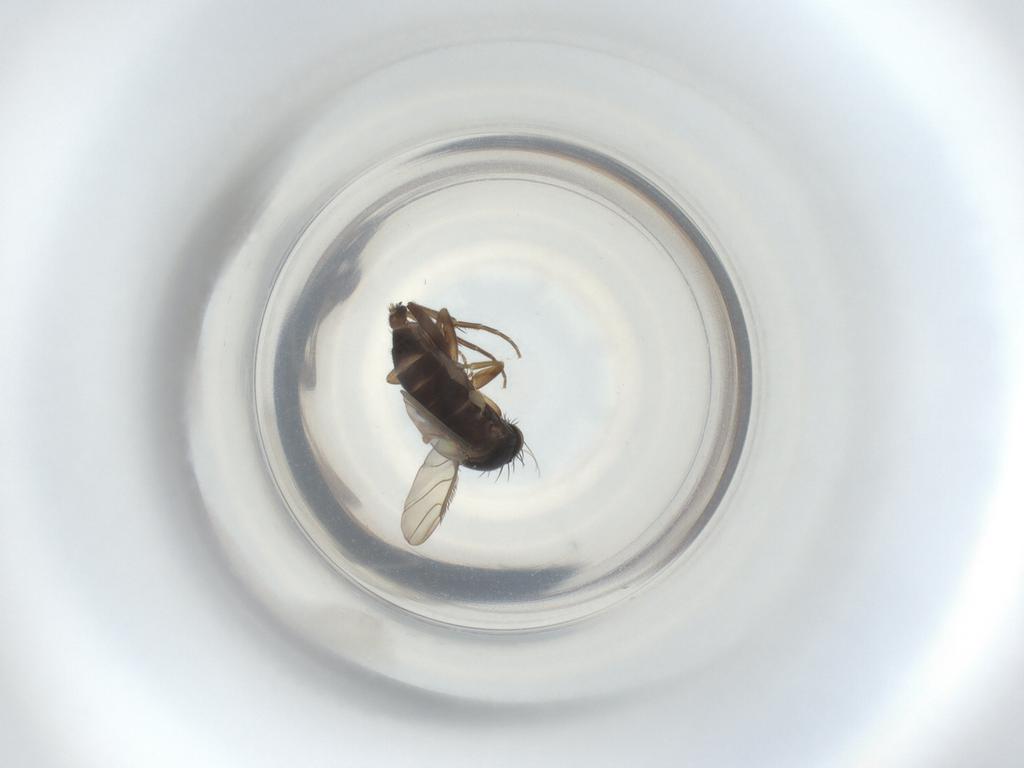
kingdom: Animalia
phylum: Arthropoda
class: Insecta
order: Diptera
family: Phoridae
